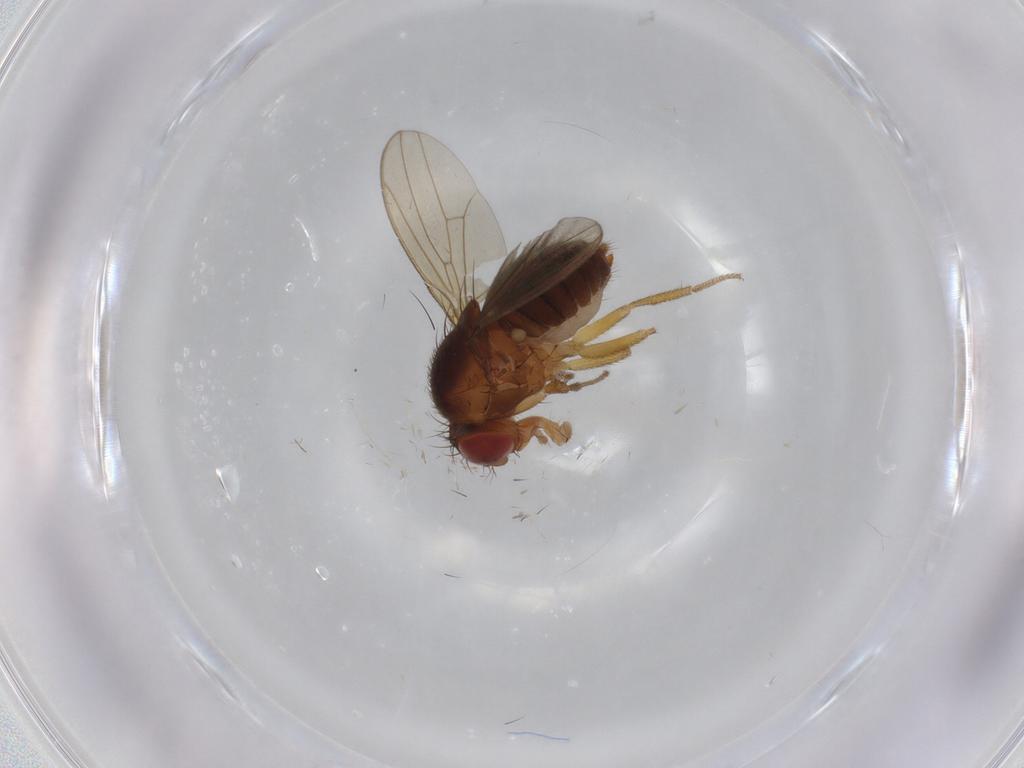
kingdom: Animalia
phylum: Arthropoda
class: Insecta
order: Diptera
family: Drosophilidae
